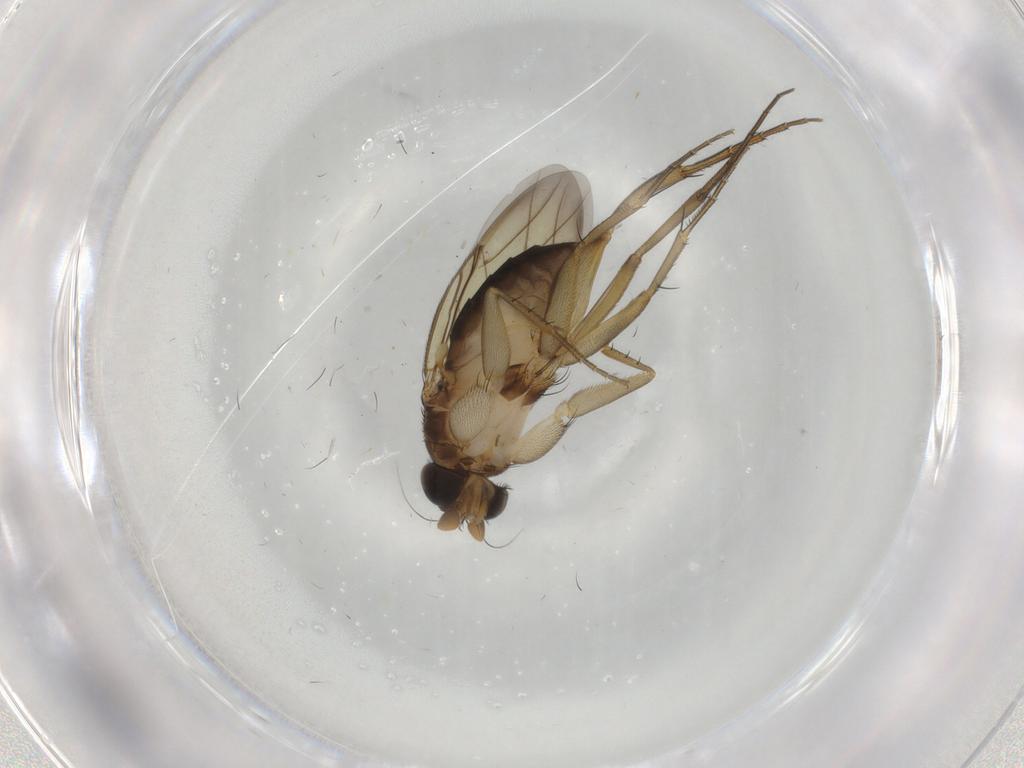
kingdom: Animalia
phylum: Arthropoda
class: Insecta
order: Diptera
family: Phoridae
